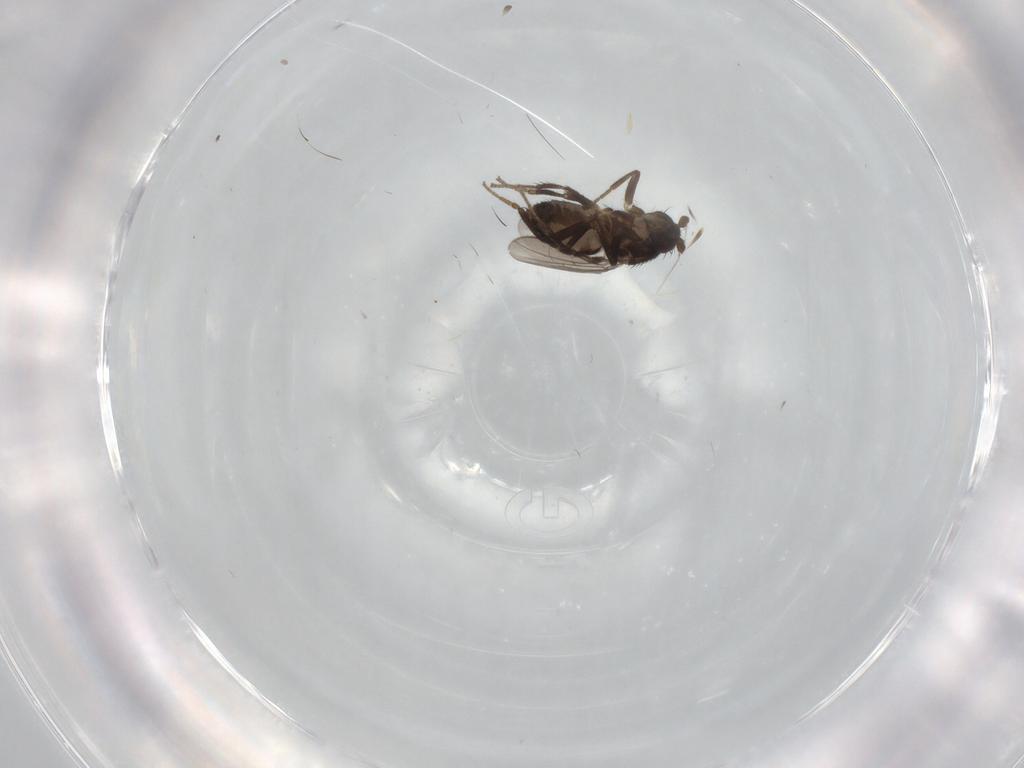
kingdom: Animalia
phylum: Arthropoda
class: Insecta
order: Diptera
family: Sphaeroceridae
